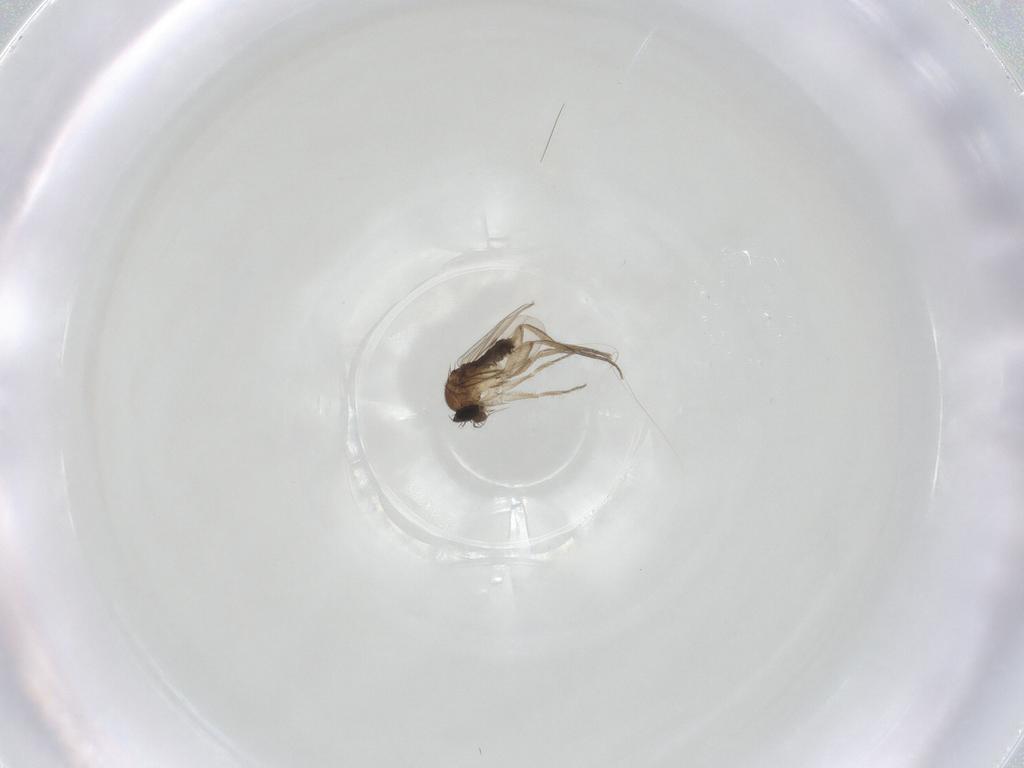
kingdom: Animalia
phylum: Arthropoda
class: Insecta
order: Diptera
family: Phoridae
